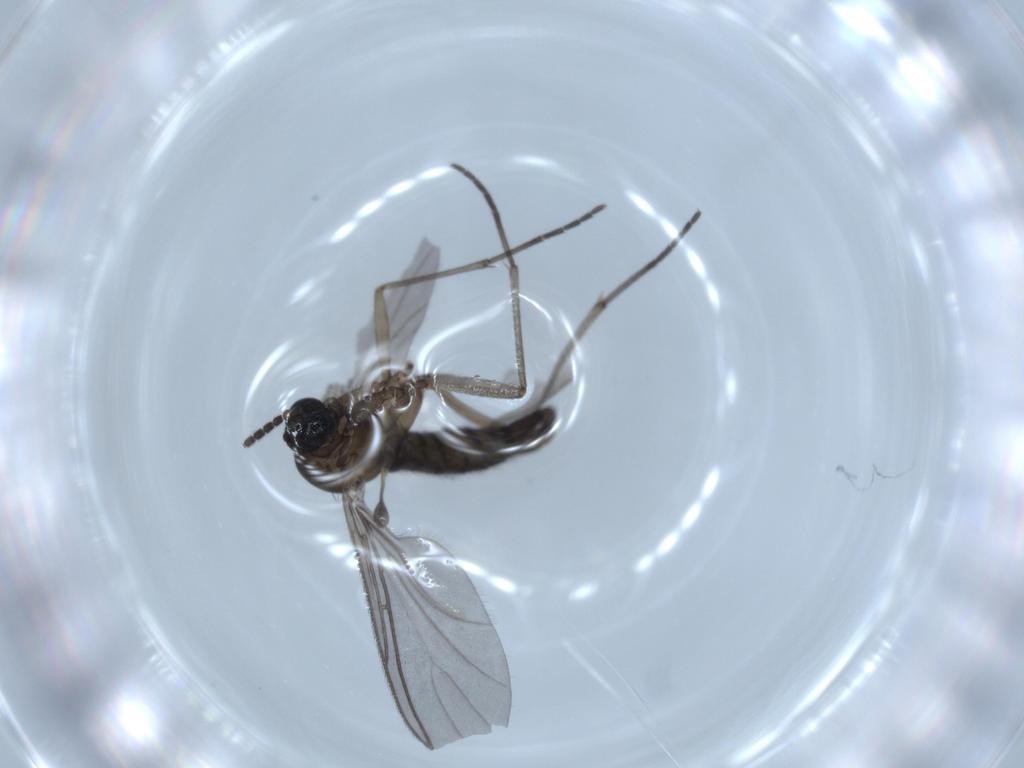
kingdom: Animalia
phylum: Arthropoda
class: Insecta
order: Diptera
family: Sciaridae
